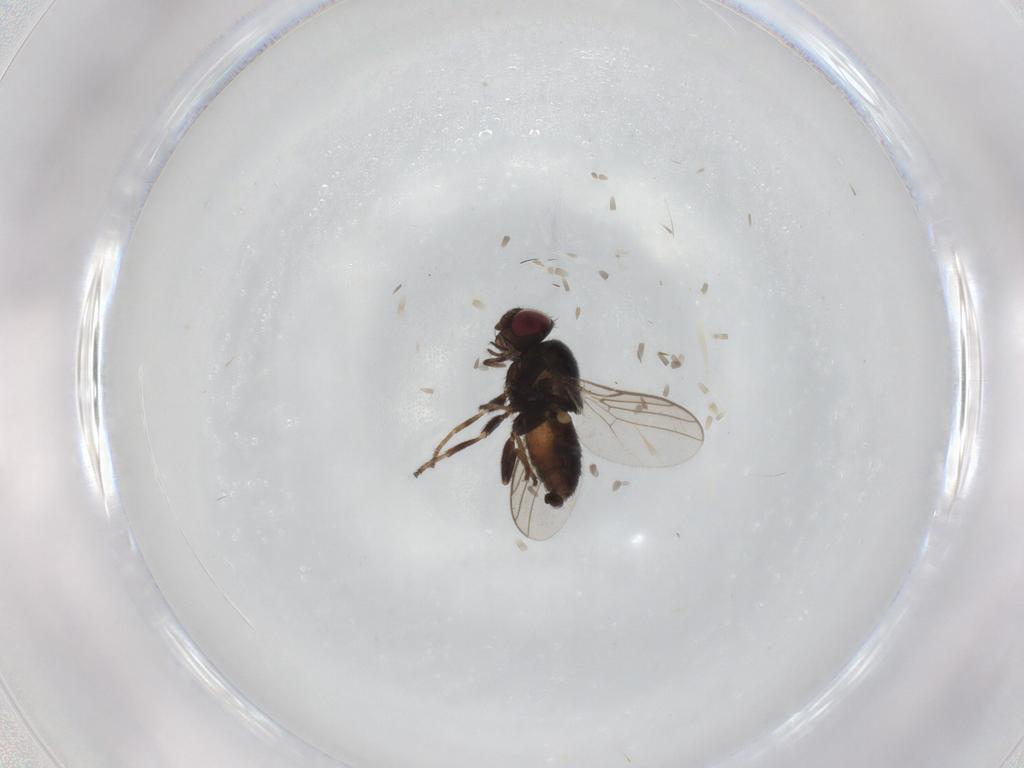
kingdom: Animalia
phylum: Arthropoda
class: Insecta
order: Diptera
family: Chloropidae
